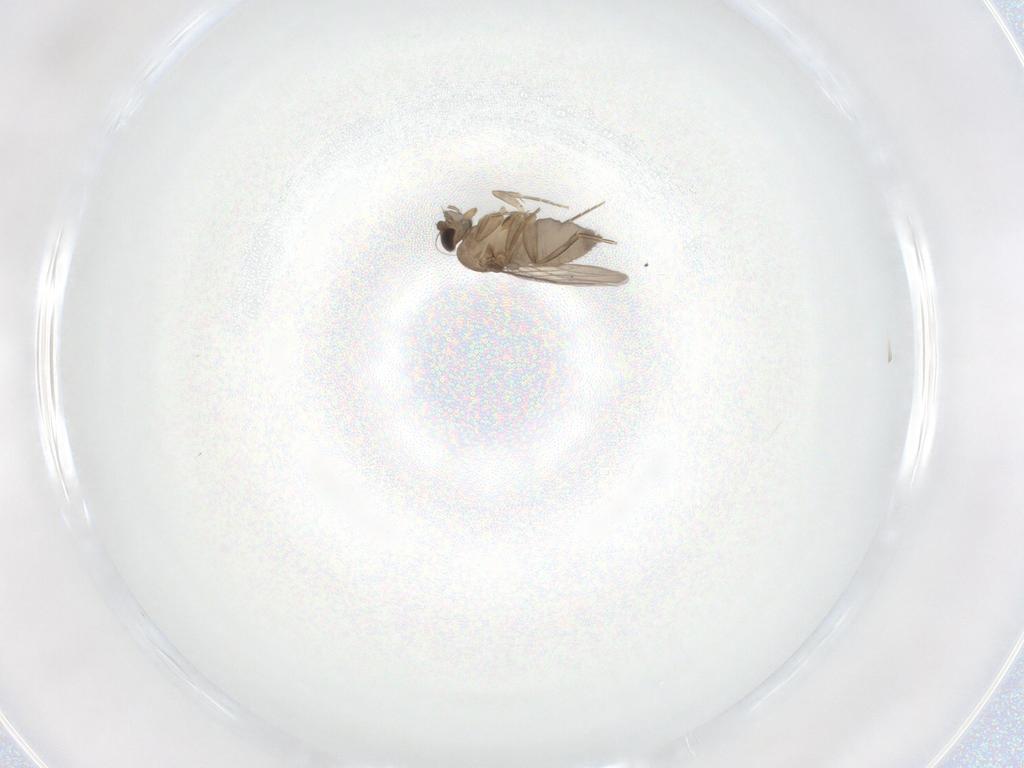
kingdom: Animalia
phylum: Arthropoda
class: Insecta
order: Diptera
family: Phoridae
